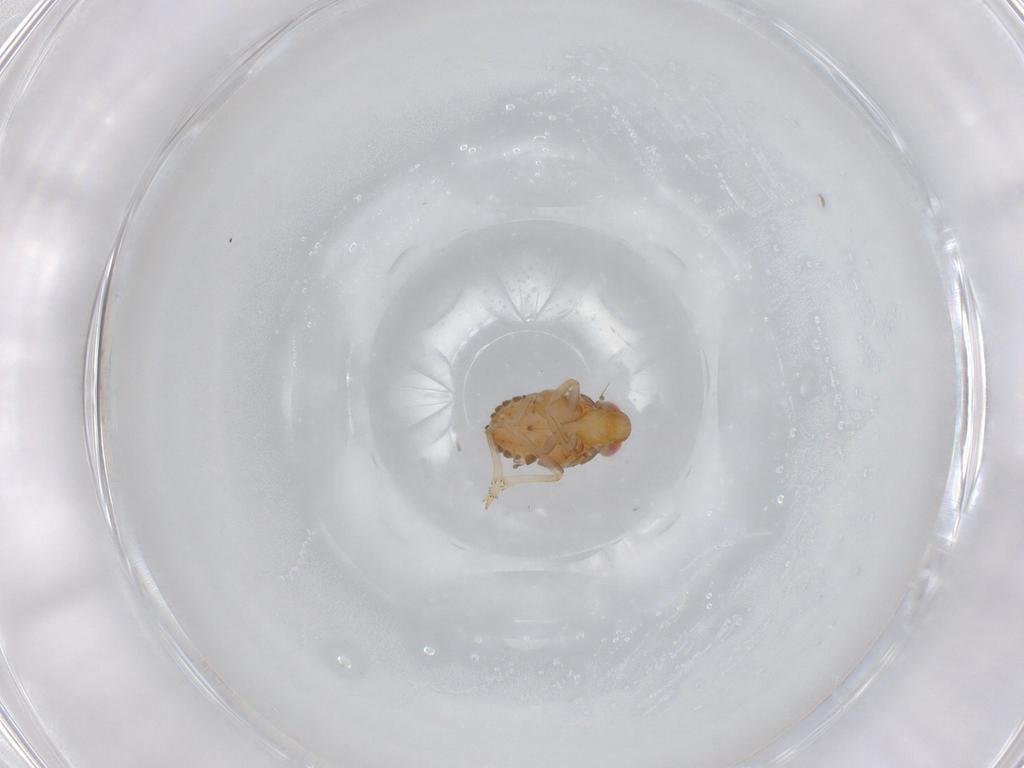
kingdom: Animalia
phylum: Arthropoda
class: Insecta
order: Hemiptera
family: Issidae
